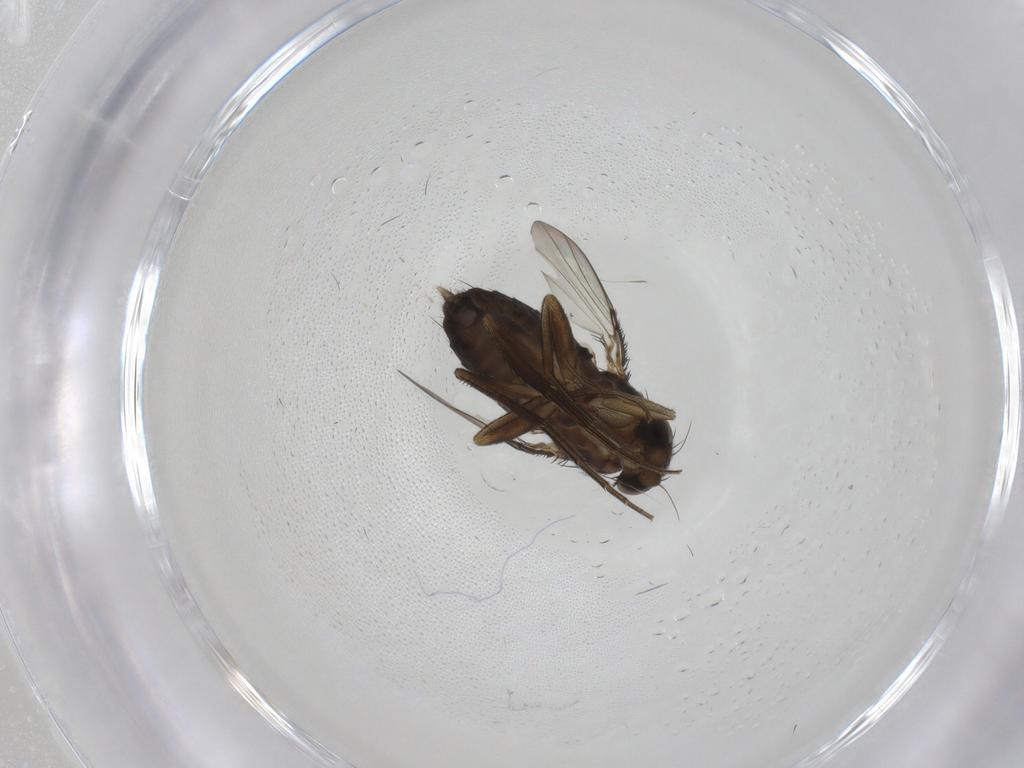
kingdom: Animalia
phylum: Arthropoda
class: Insecta
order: Diptera
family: Phoridae
